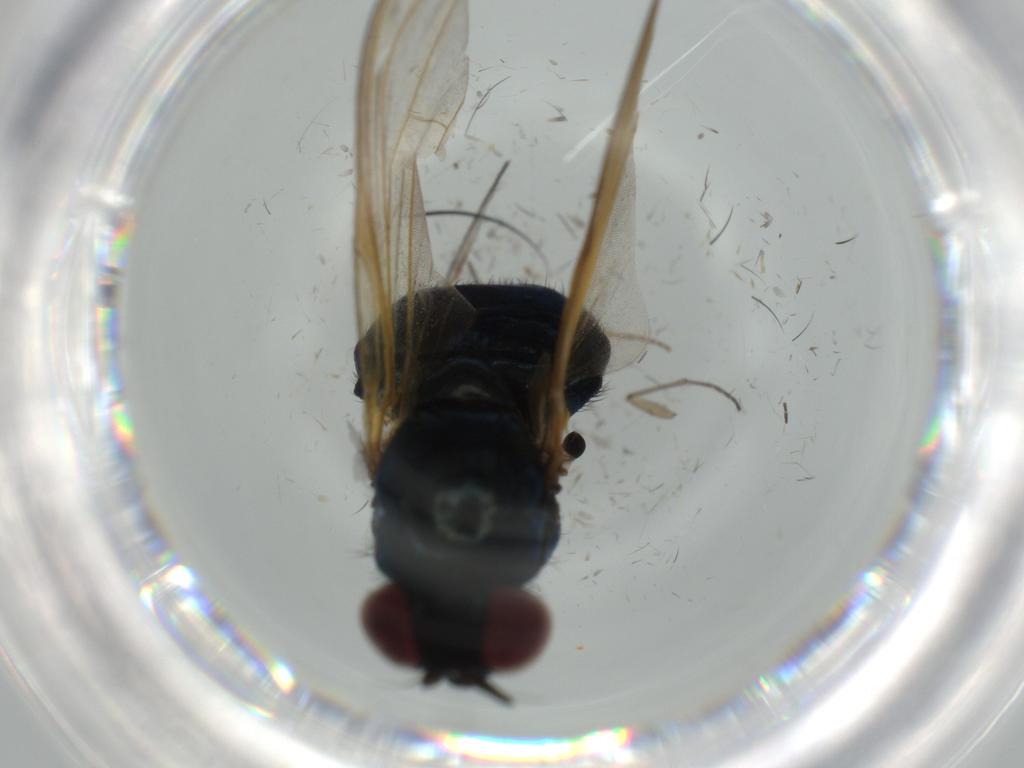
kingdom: Animalia
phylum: Arthropoda
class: Insecta
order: Diptera
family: Cecidomyiidae
